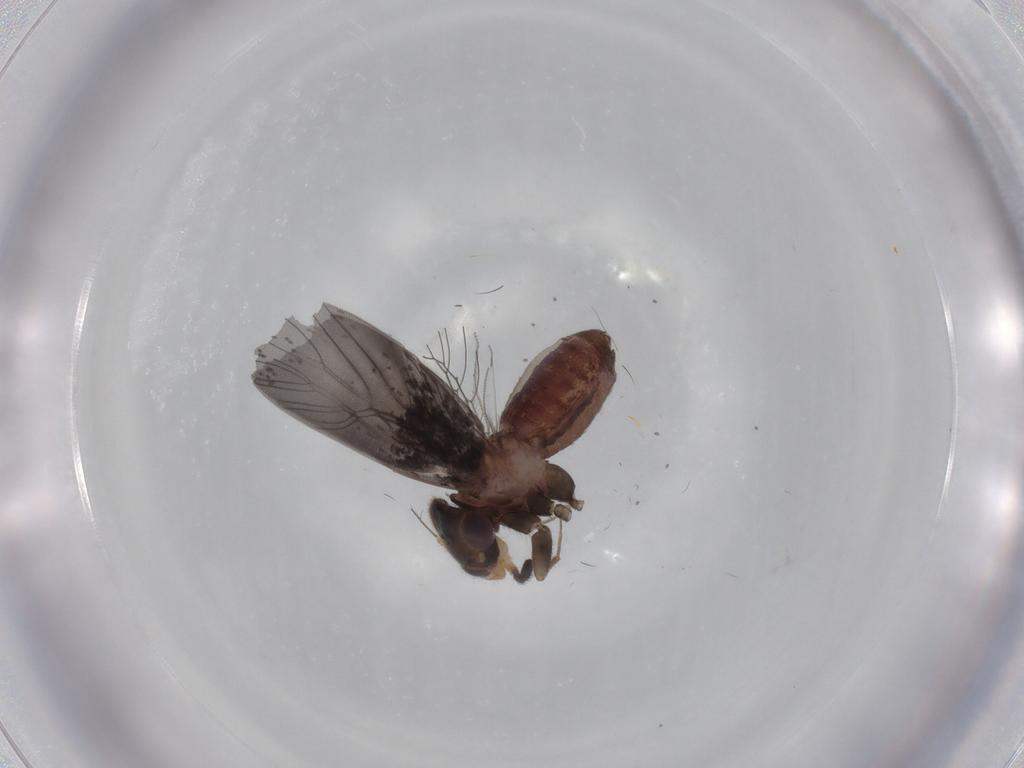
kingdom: Animalia
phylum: Arthropoda
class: Insecta
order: Psocodea
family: Lepidopsocidae
